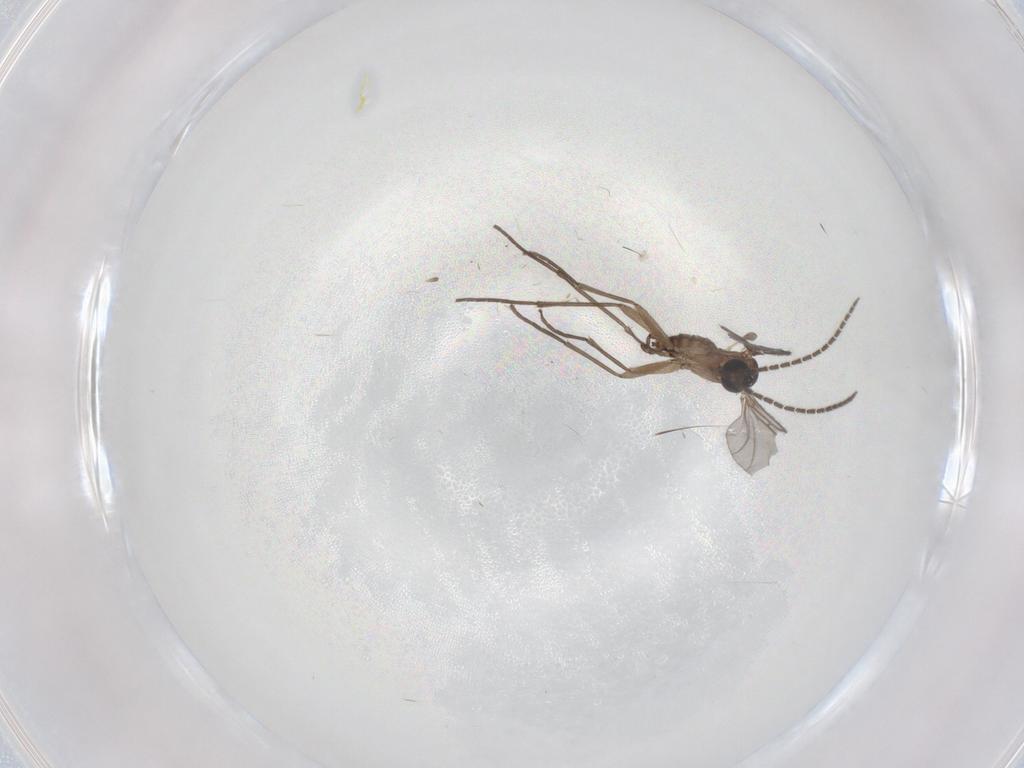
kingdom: Animalia
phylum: Arthropoda
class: Insecta
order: Diptera
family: Sciaridae
